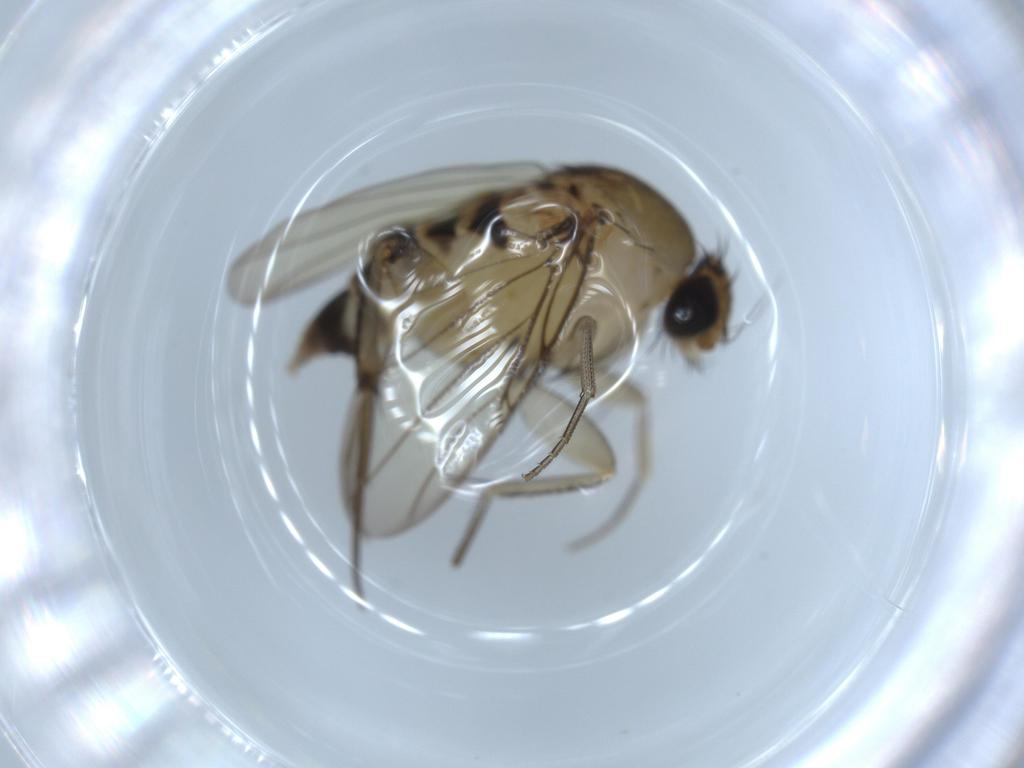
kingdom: Animalia
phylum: Arthropoda
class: Insecta
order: Diptera
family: Phoridae
